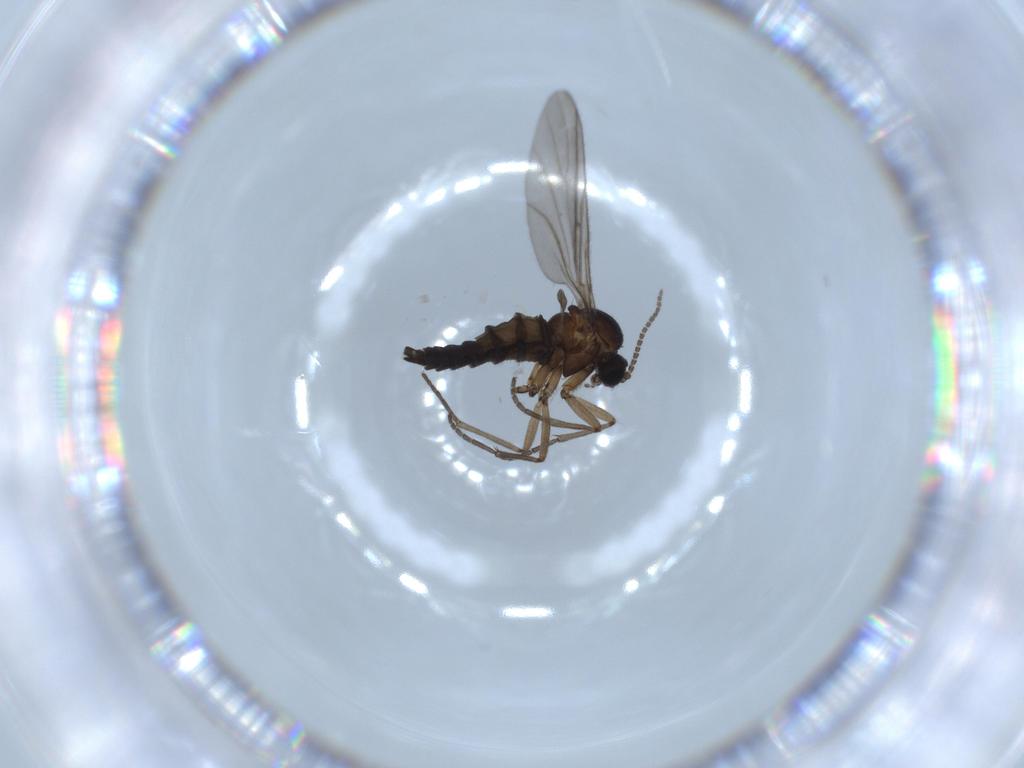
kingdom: Animalia
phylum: Arthropoda
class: Insecta
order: Diptera
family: Sciaridae
